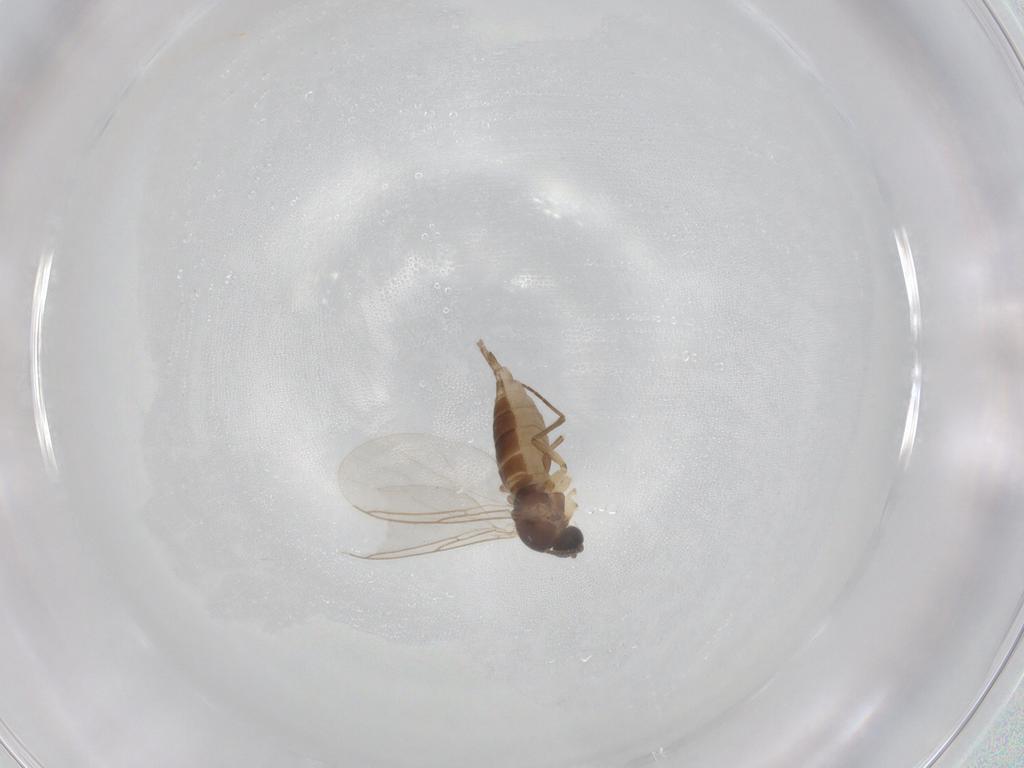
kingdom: Animalia
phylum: Arthropoda
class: Insecta
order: Diptera
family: Sciaridae
